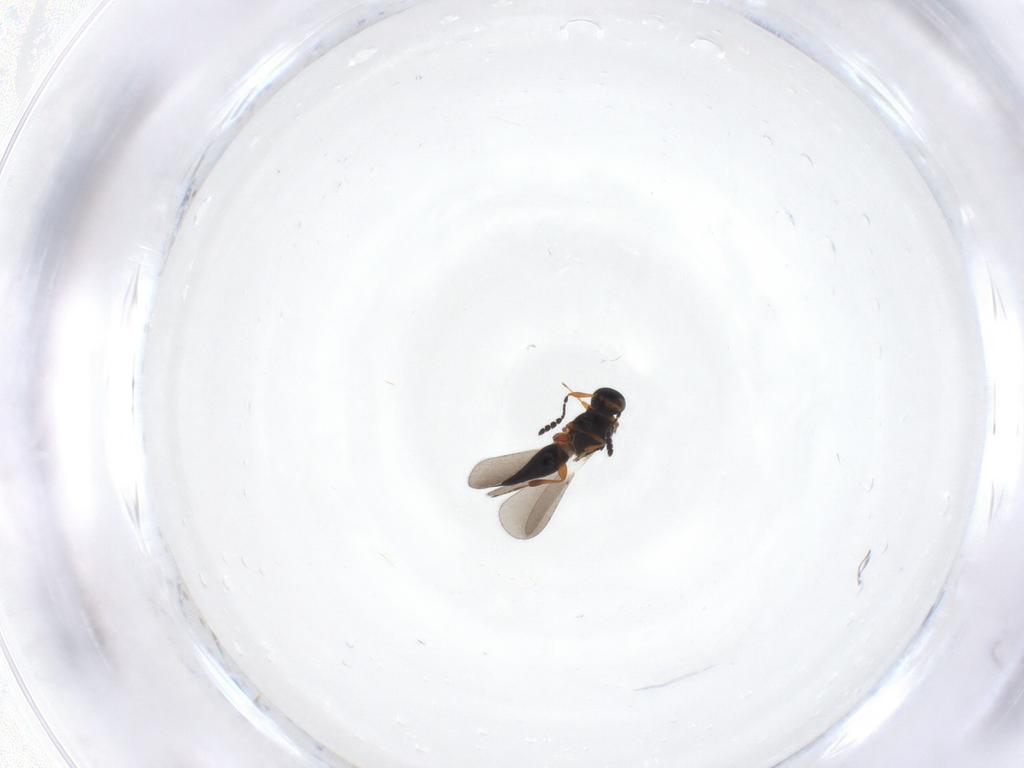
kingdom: Animalia
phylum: Arthropoda
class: Insecta
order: Hymenoptera
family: Platygastridae
